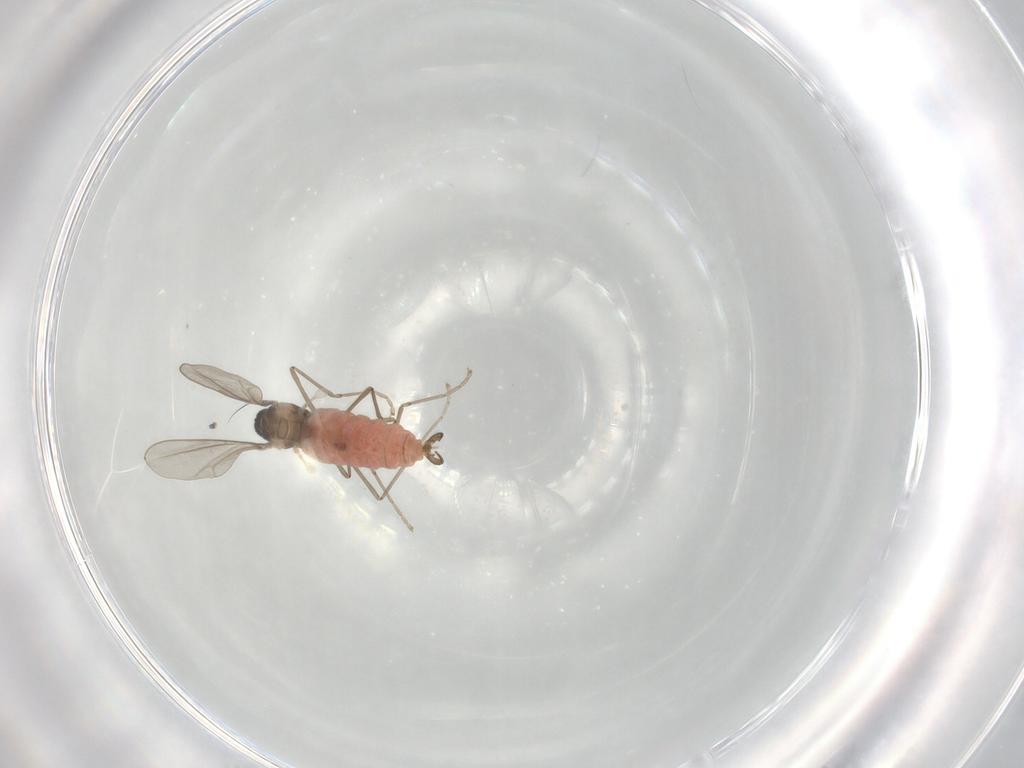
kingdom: Animalia
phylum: Arthropoda
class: Insecta
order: Diptera
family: Cecidomyiidae
